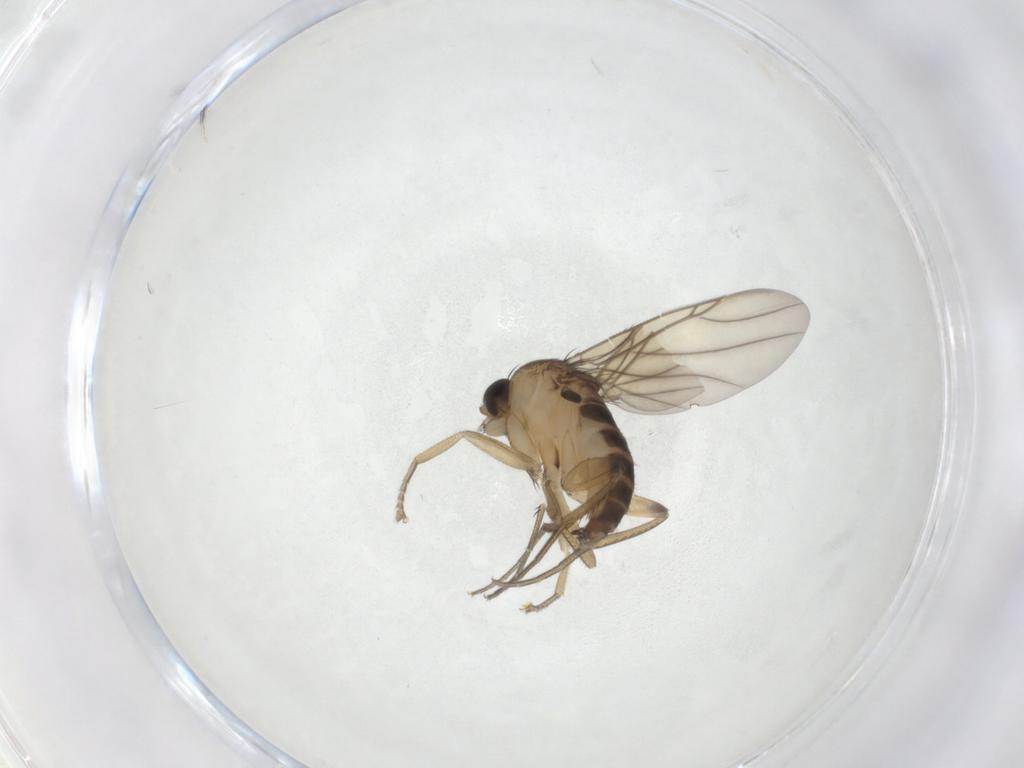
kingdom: Animalia
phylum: Arthropoda
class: Insecta
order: Diptera
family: Phoridae
